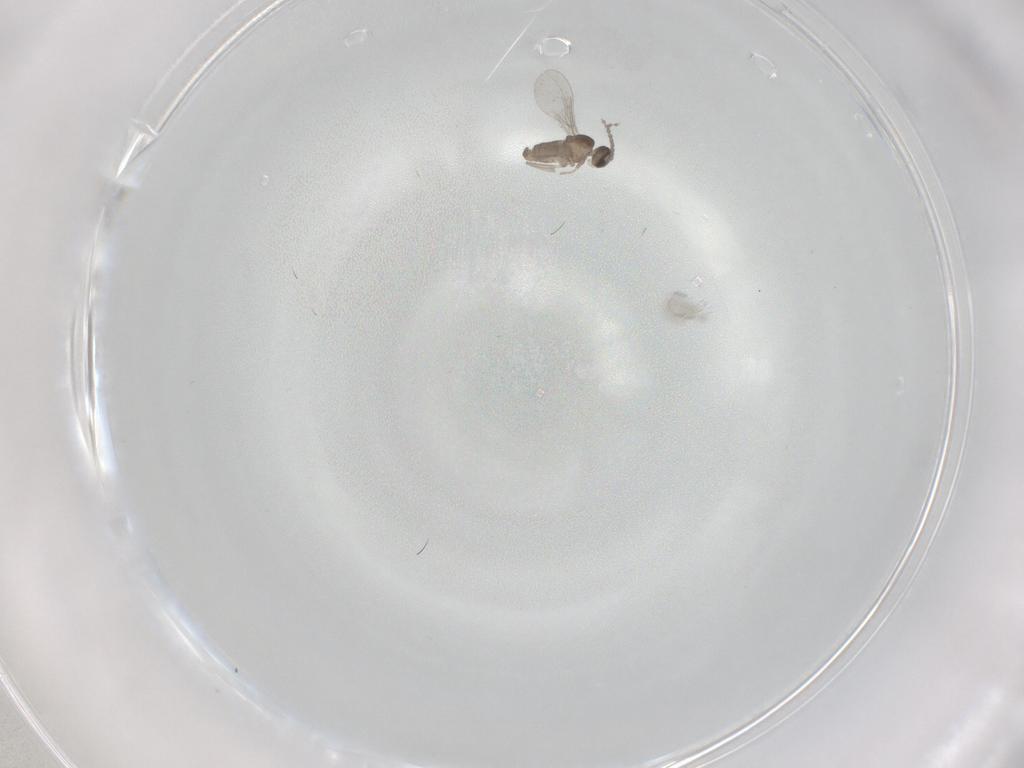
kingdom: Animalia
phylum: Arthropoda
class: Insecta
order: Diptera
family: Cecidomyiidae
